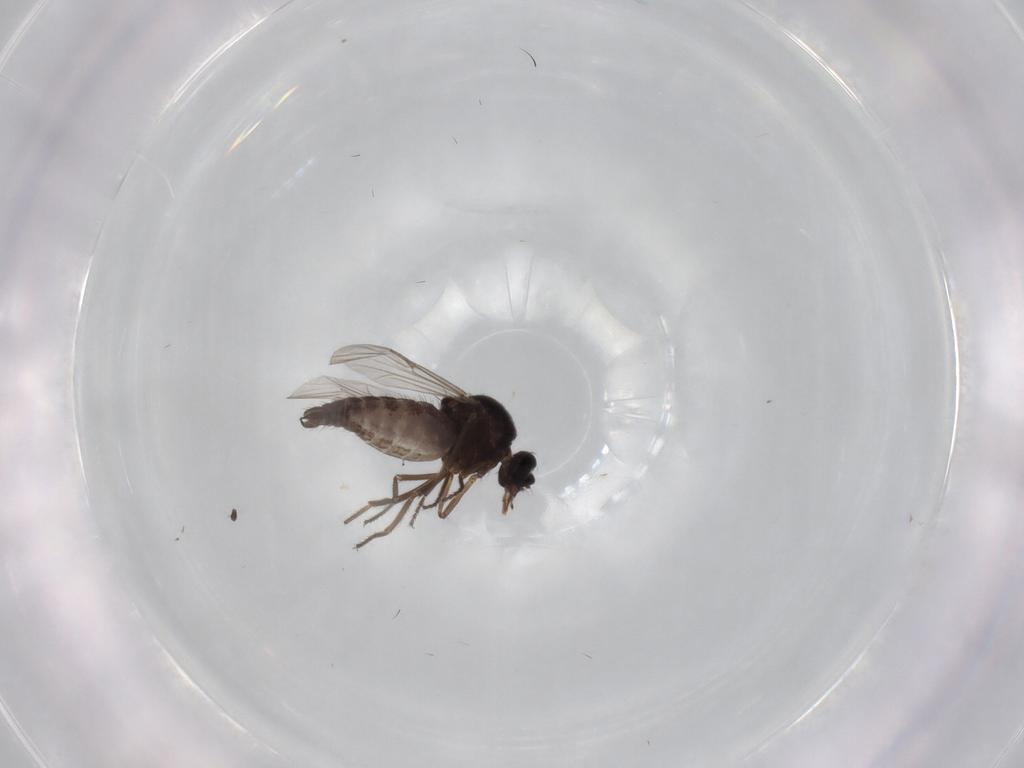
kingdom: Animalia
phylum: Arthropoda
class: Insecta
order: Diptera
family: Ceratopogonidae
